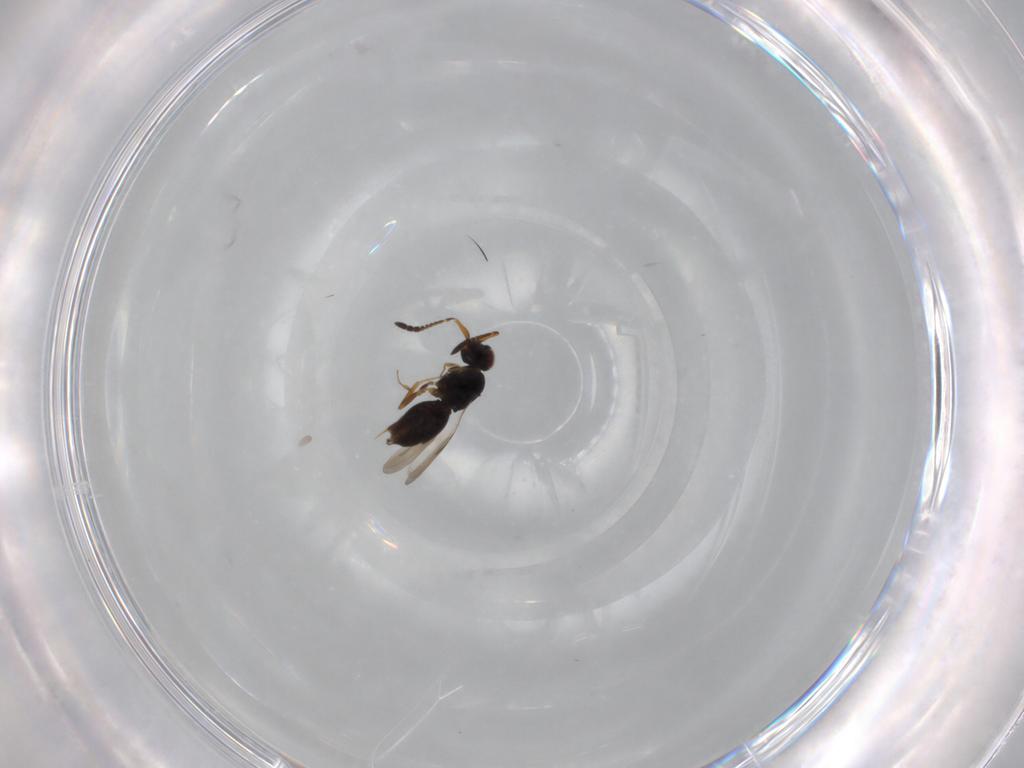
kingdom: Animalia
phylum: Arthropoda
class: Insecta
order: Hymenoptera
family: Ceraphronidae
